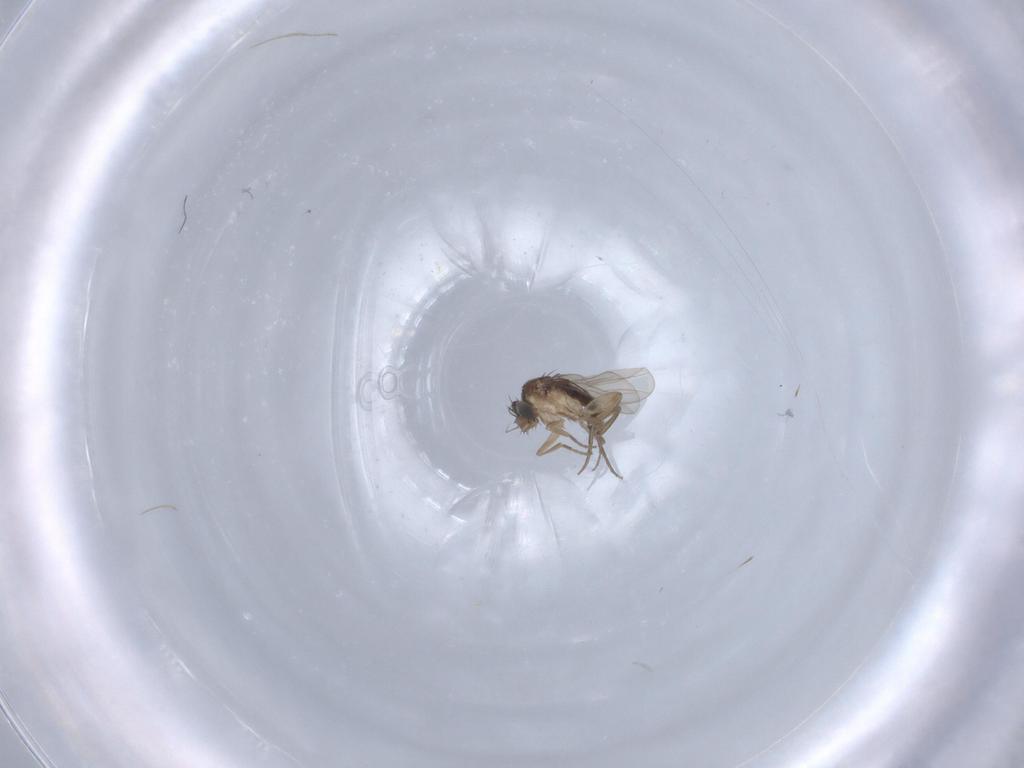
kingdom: Animalia
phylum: Arthropoda
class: Insecta
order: Diptera
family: Phoridae
